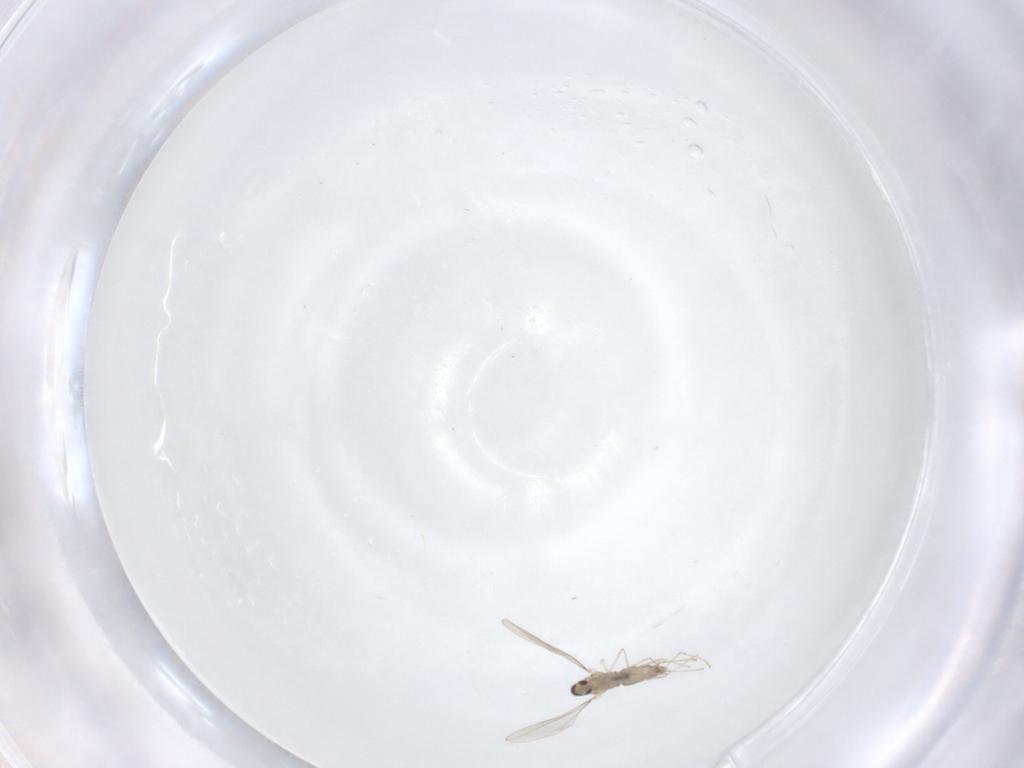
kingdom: Animalia
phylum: Arthropoda
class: Insecta
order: Diptera
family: Cecidomyiidae
